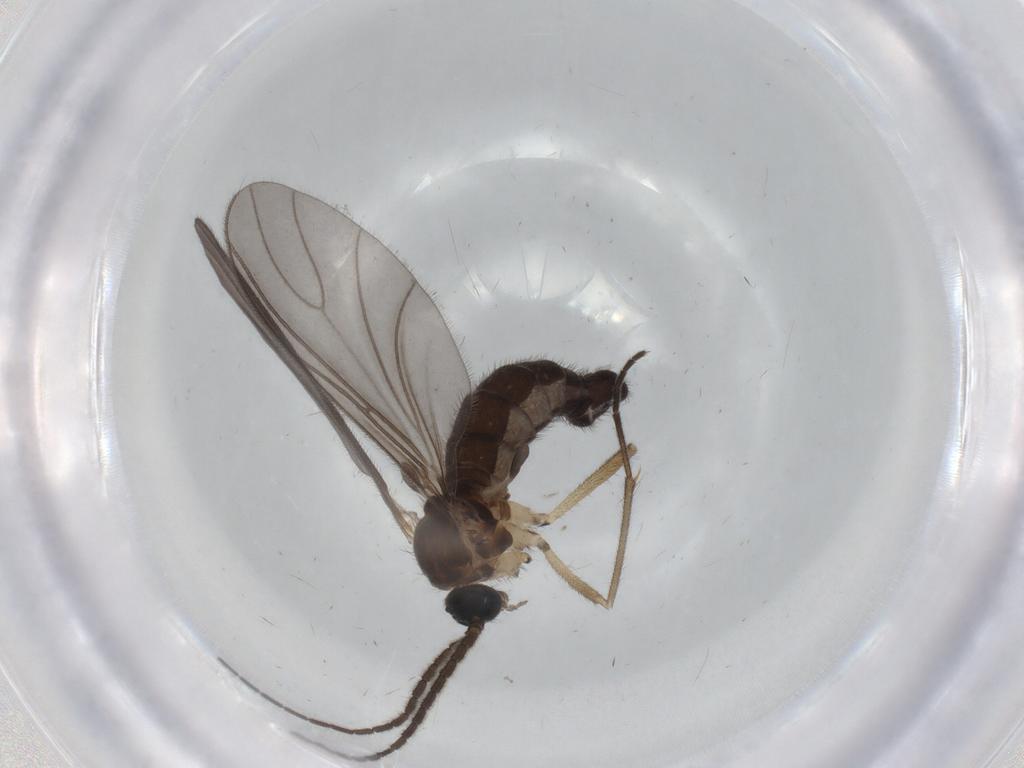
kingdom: Animalia
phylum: Arthropoda
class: Insecta
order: Diptera
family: Sciaridae
